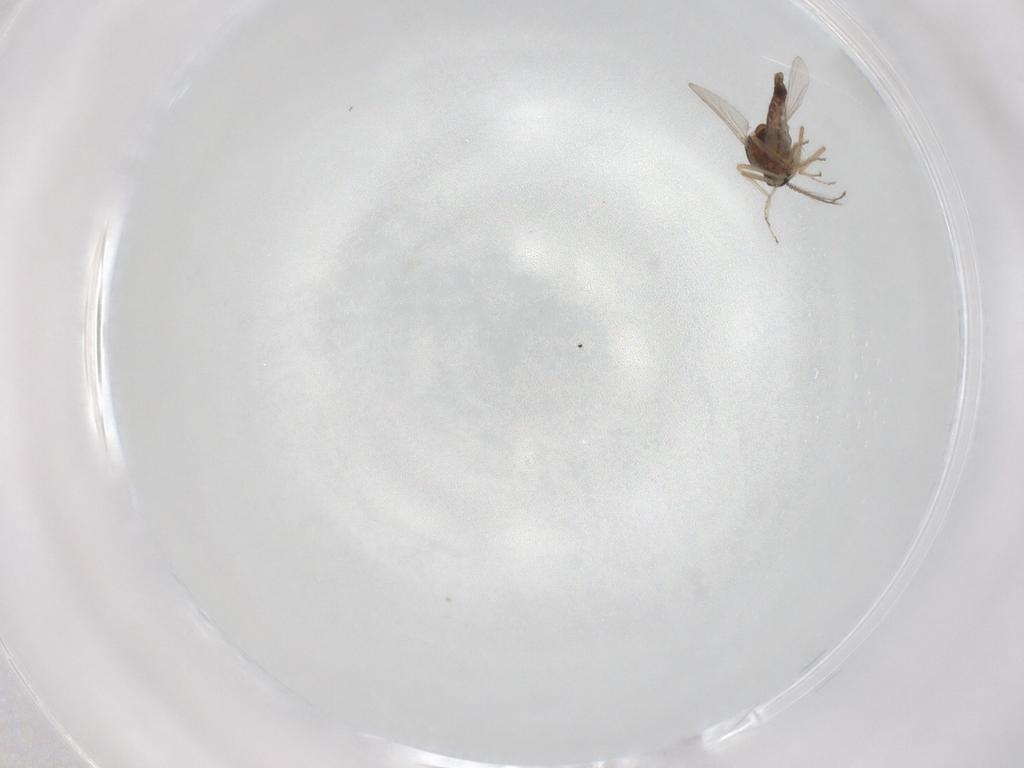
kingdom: Animalia
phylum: Arthropoda
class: Insecta
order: Diptera
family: Ceratopogonidae
